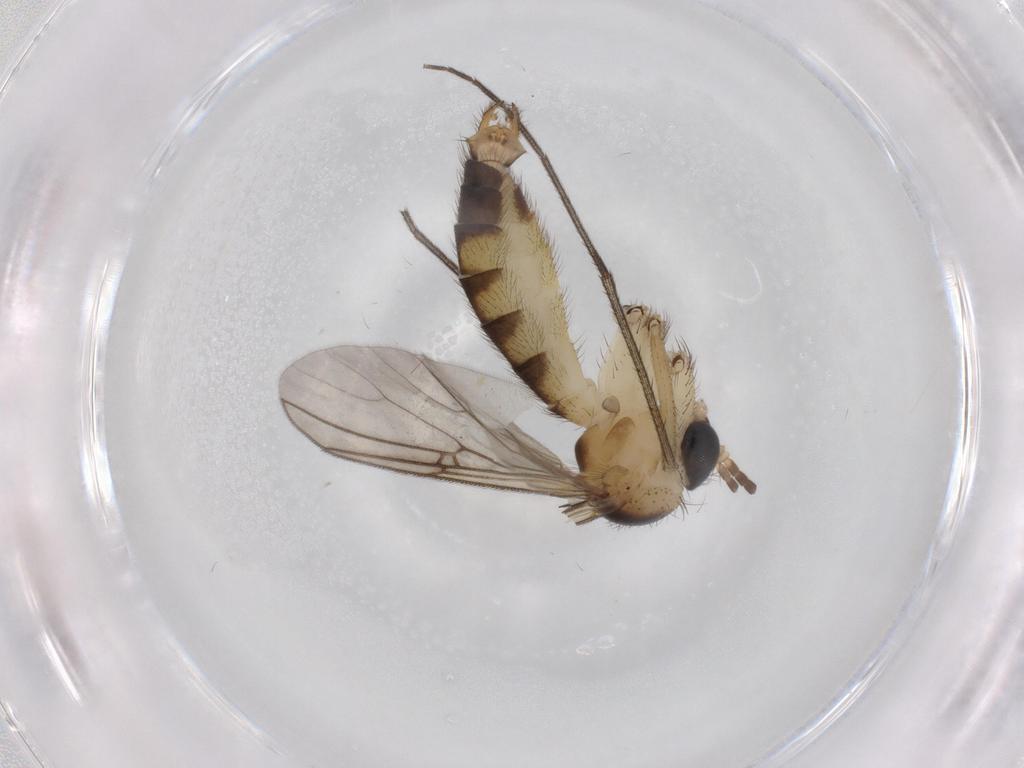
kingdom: Animalia
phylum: Arthropoda
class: Insecta
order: Diptera
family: Mycetophilidae
